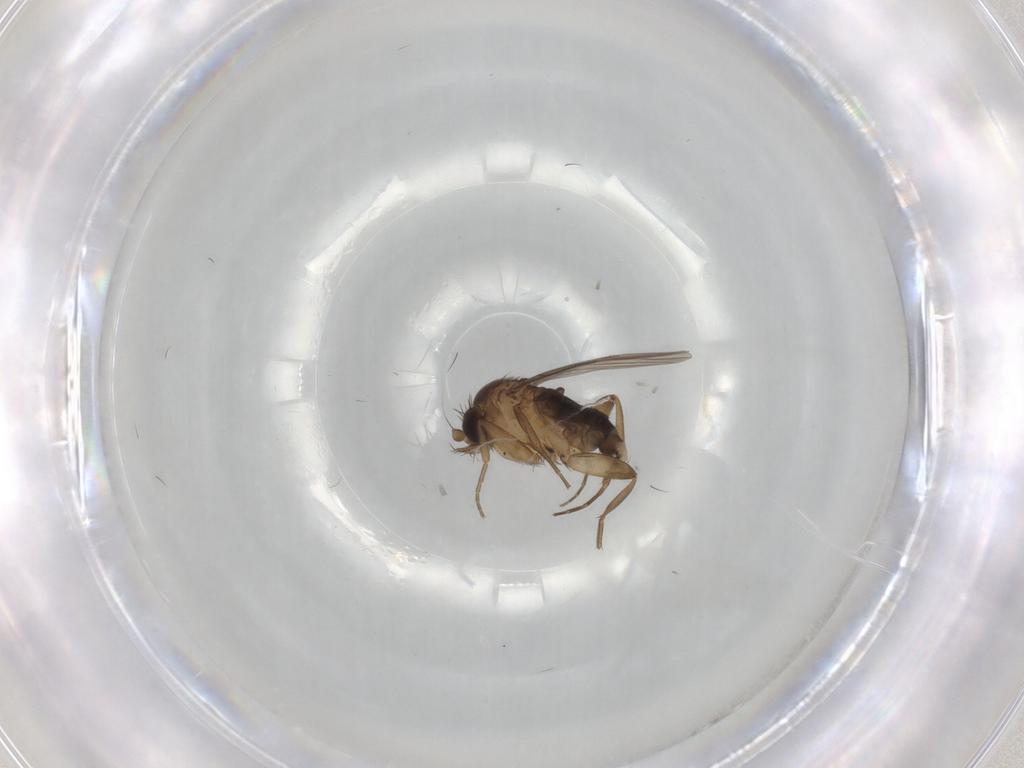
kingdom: Animalia
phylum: Arthropoda
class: Insecta
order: Diptera
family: Phoridae
